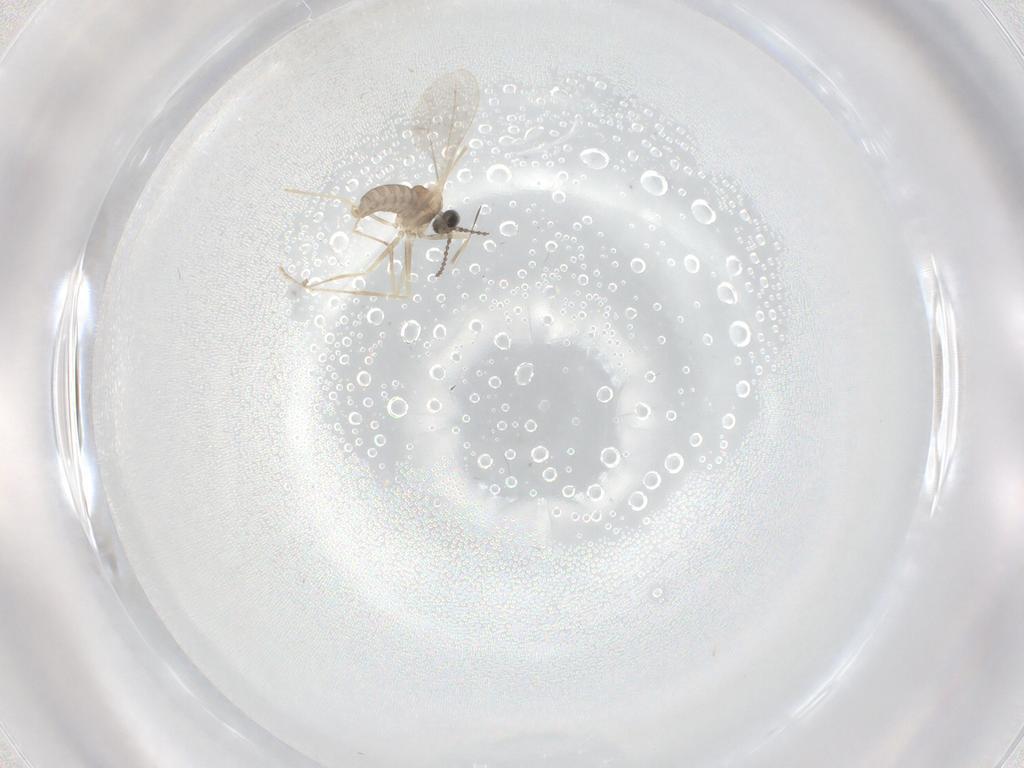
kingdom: Animalia
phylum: Arthropoda
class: Insecta
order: Diptera
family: Cecidomyiidae
